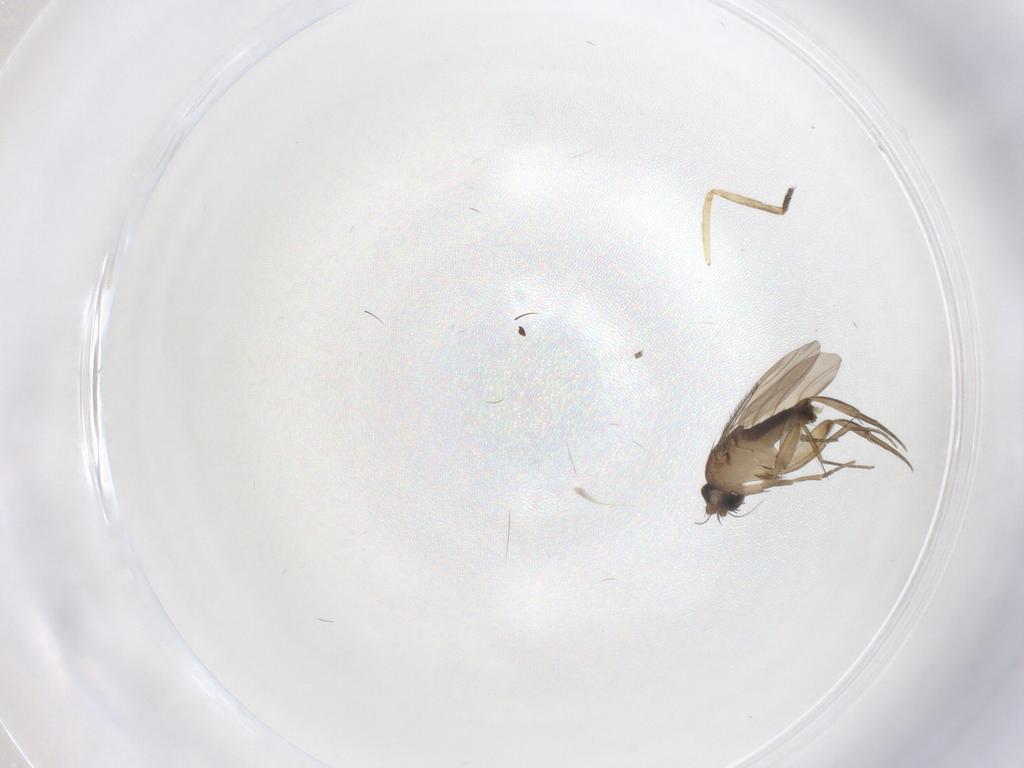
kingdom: Animalia
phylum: Arthropoda
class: Insecta
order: Diptera
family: Phoridae
